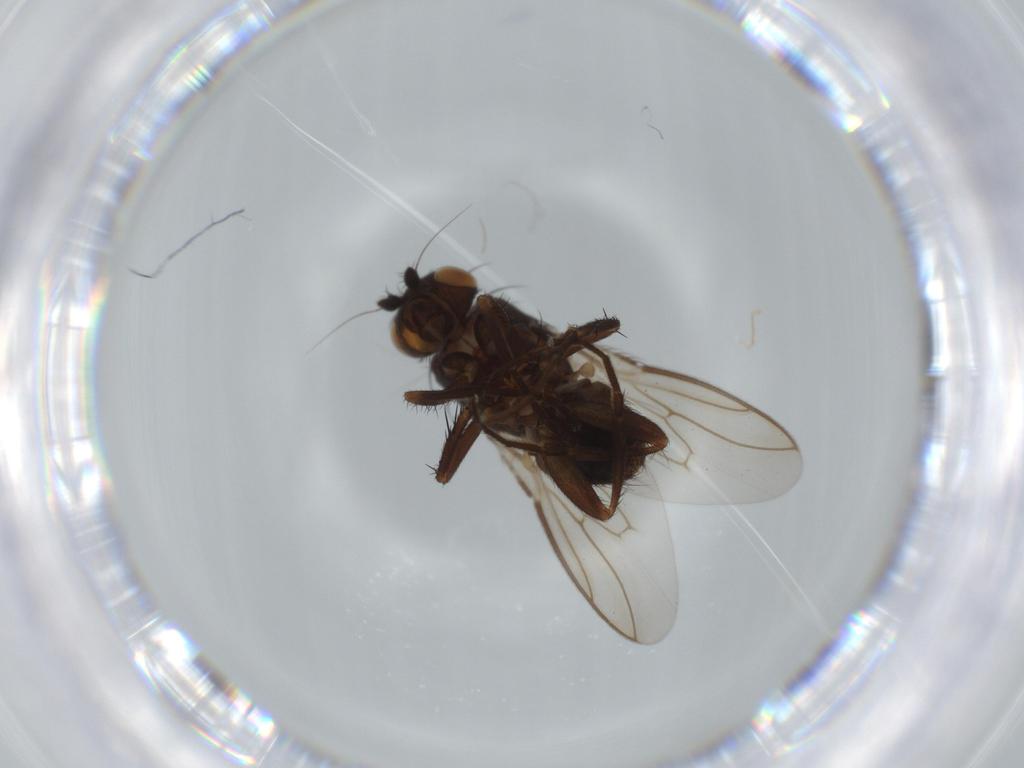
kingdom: Animalia
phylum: Arthropoda
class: Insecta
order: Diptera
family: Sphaeroceridae
